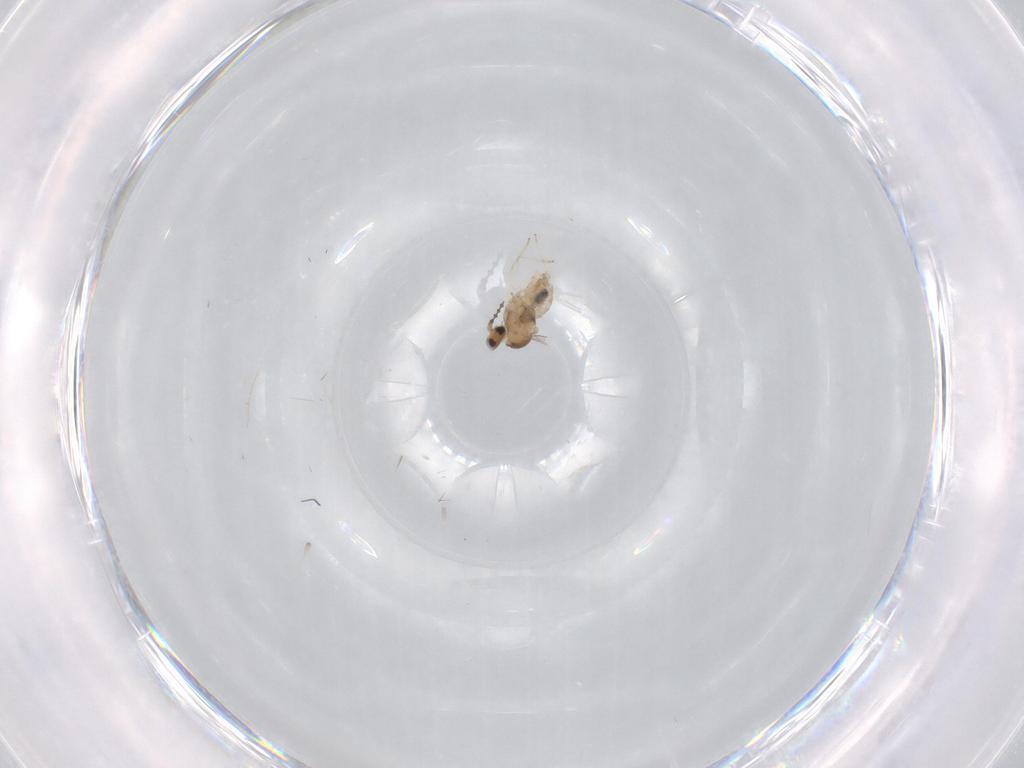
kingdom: Animalia
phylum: Arthropoda
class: Insecta
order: Diptera
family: Cecidomyiidae
